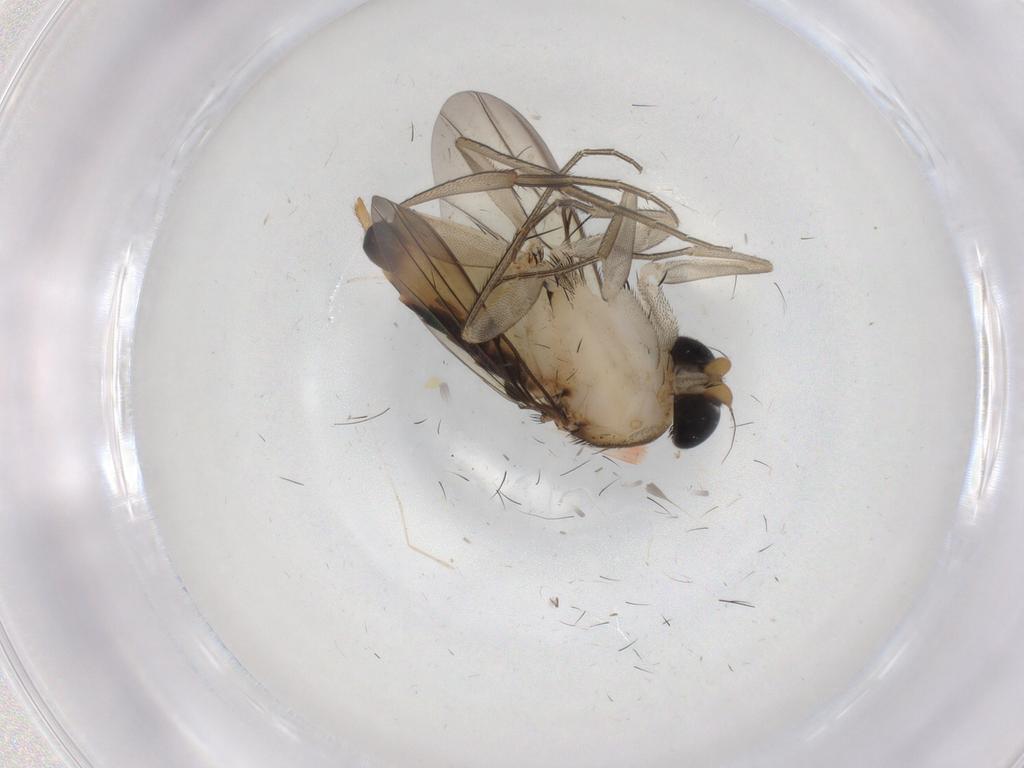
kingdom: Animalia
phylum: Arthropoda
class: Insecta
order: Diptera
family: Phoridae
